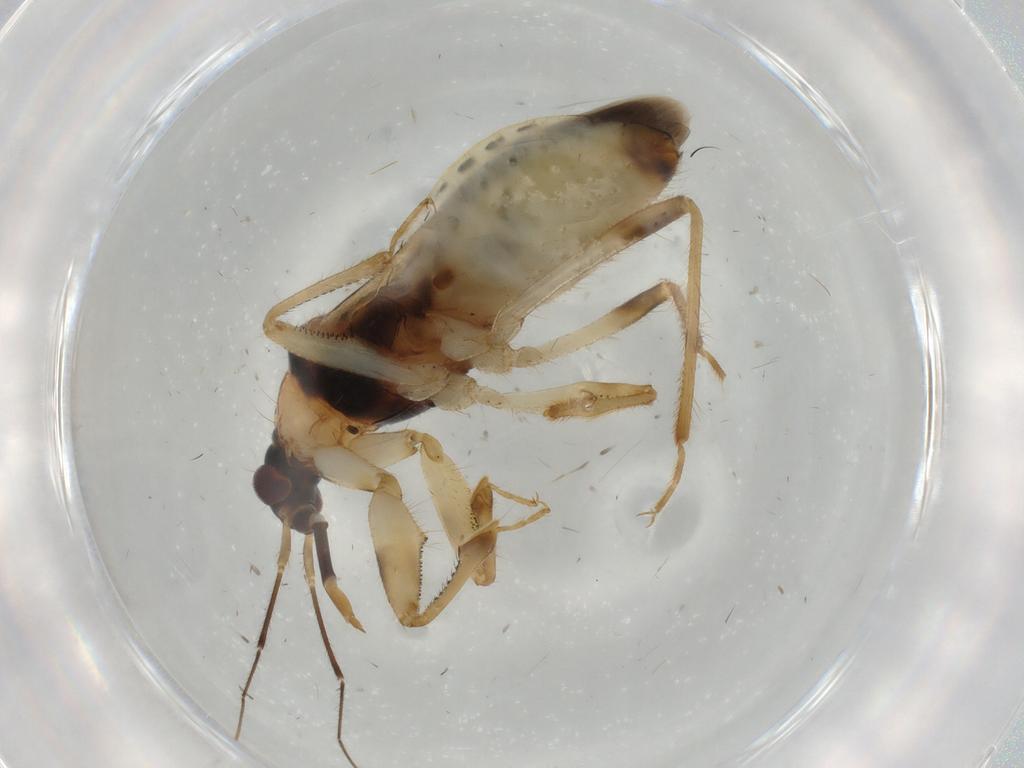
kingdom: Animalia
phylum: Arthropoda
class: Insecta
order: Hemiptera
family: Nabidae
